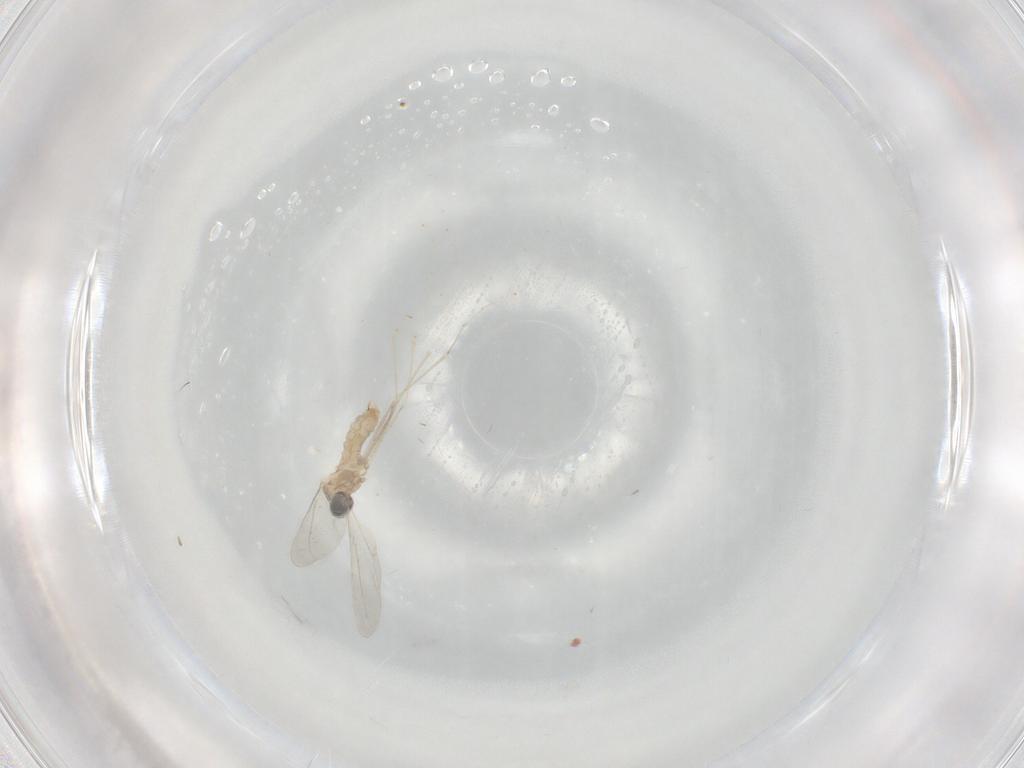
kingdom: Animalia
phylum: Arthropoda
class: Insecta
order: Diptera
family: Cecidomyiidae
